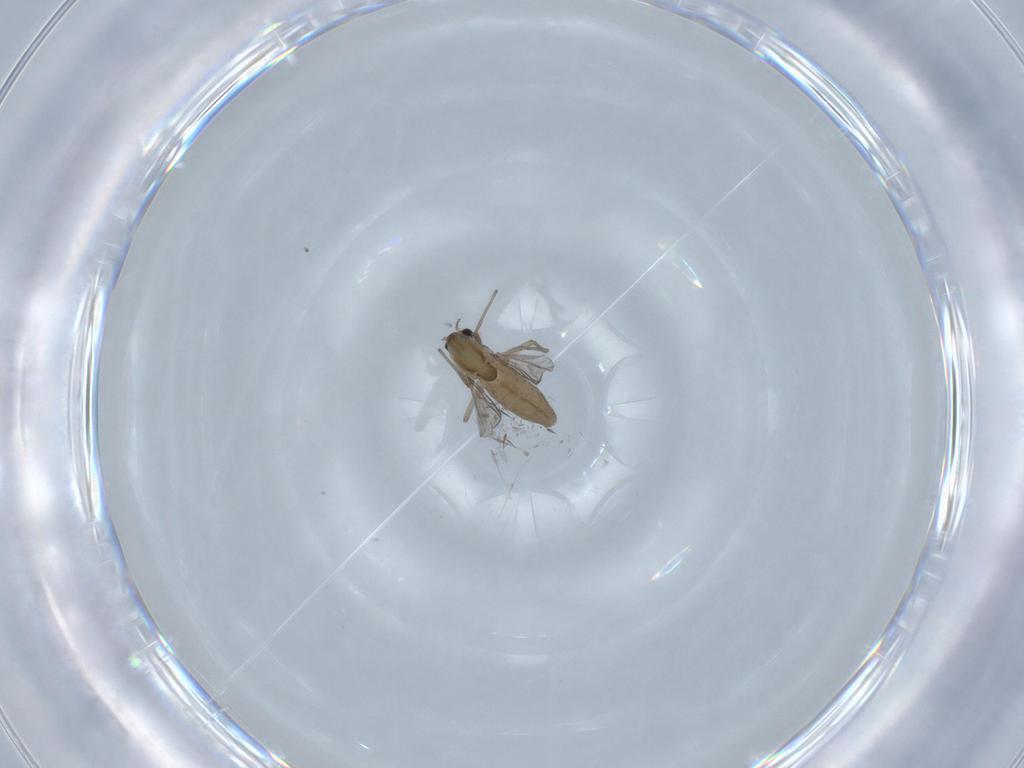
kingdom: Animalia
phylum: Arthropoda
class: Insecta
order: Diptera
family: Chironomidae
